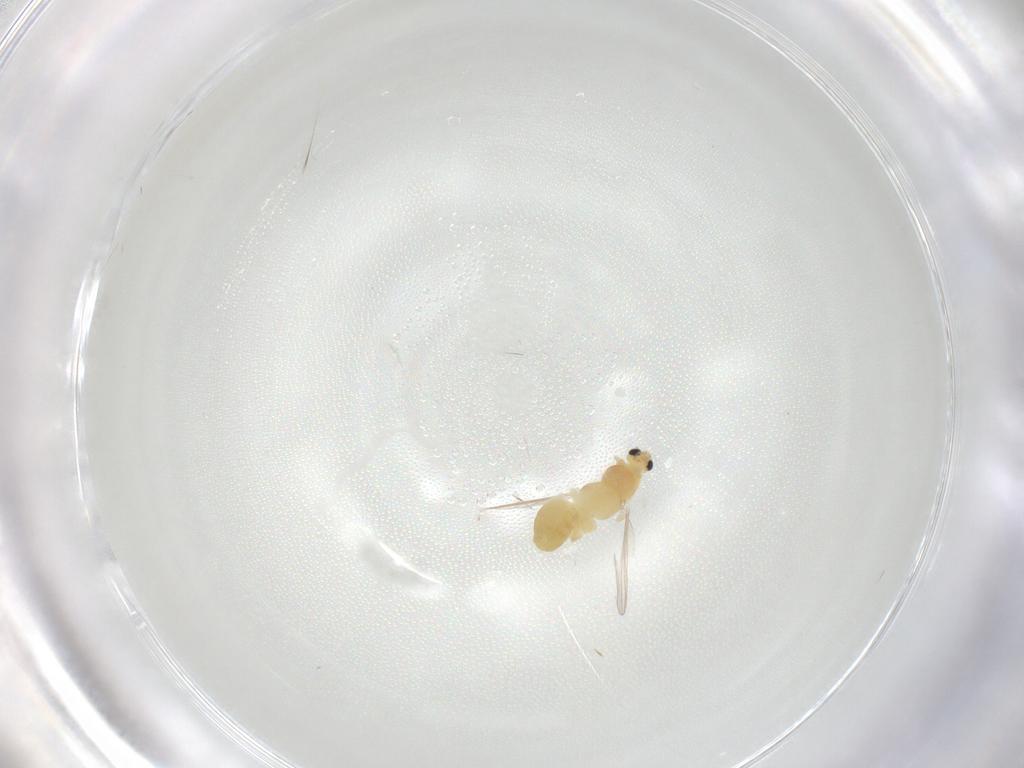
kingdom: Animalia
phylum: Arthropoda
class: Insecta
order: Diptera
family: Chironomidae
